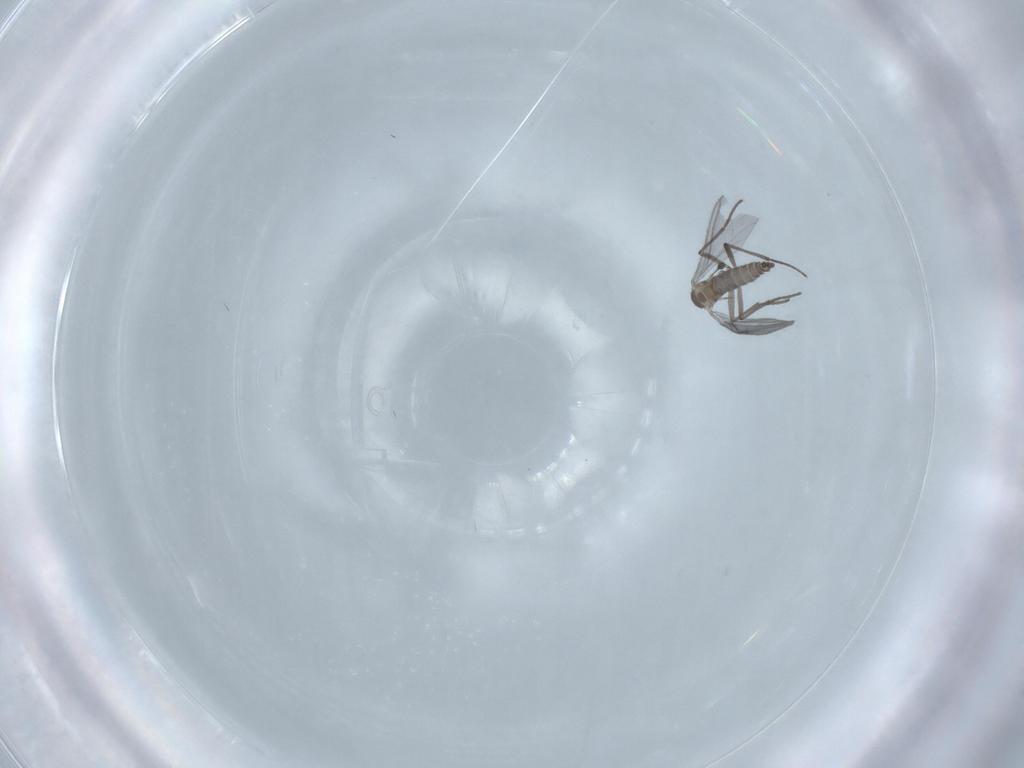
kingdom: Animalia
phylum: Arthropoda
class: Insecta
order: Diptera
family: Sciaridae
